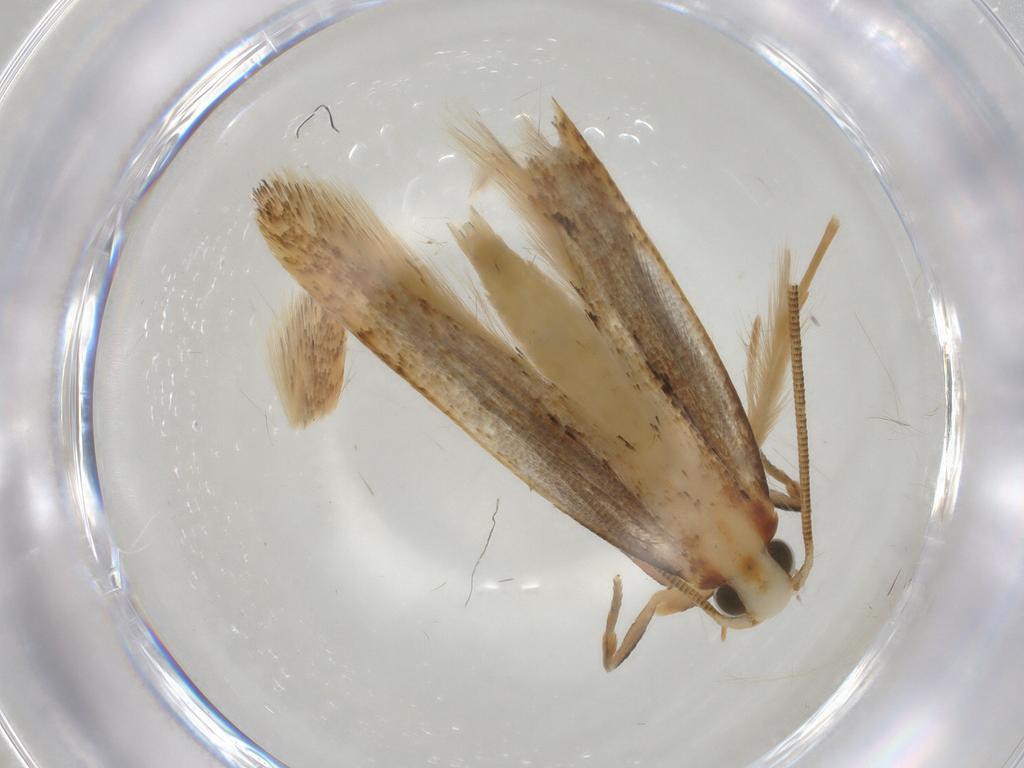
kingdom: Animalia
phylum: Arthropoda
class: Insecta
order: Lepidoptera
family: Tineidae
